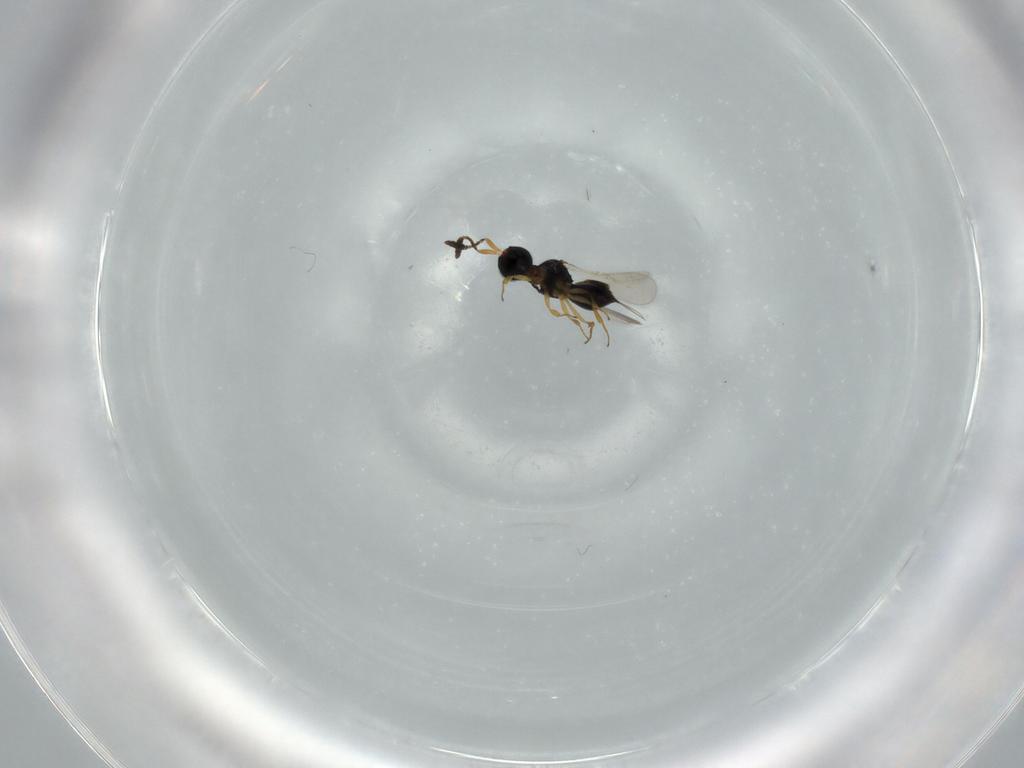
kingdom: Animalia
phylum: Arthropoda
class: Insecta
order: Hymenoptera
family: Scelionidae
